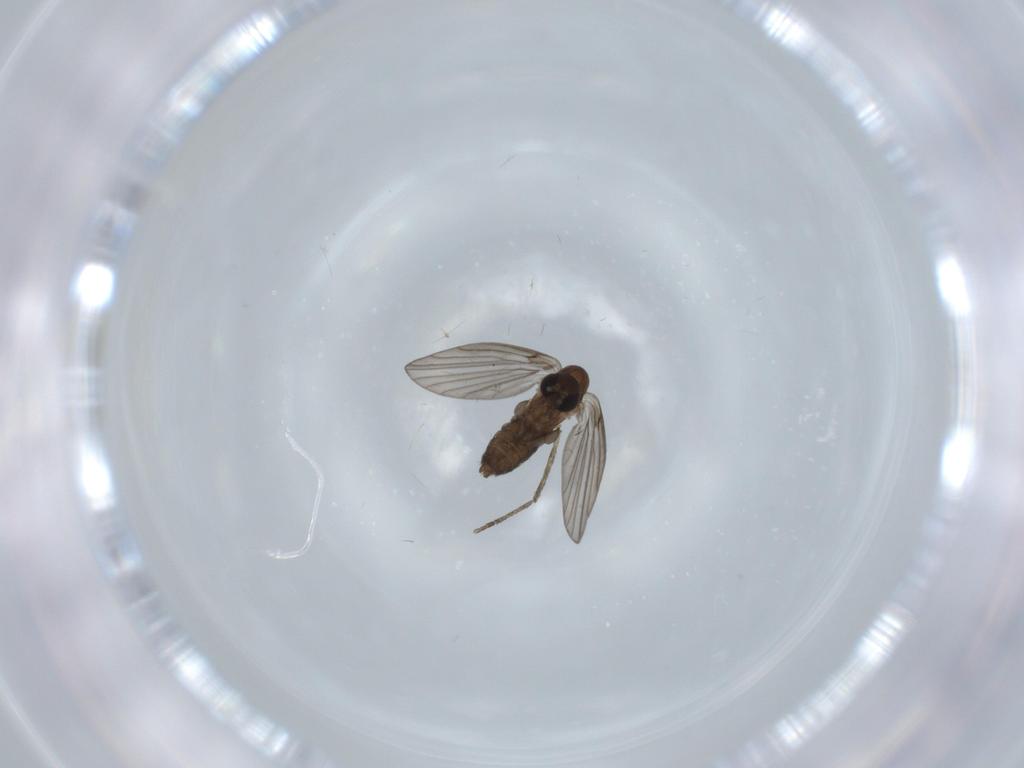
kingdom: Animalia
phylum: Arthropoda
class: Insecta
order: Diptera
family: Psychodidae
